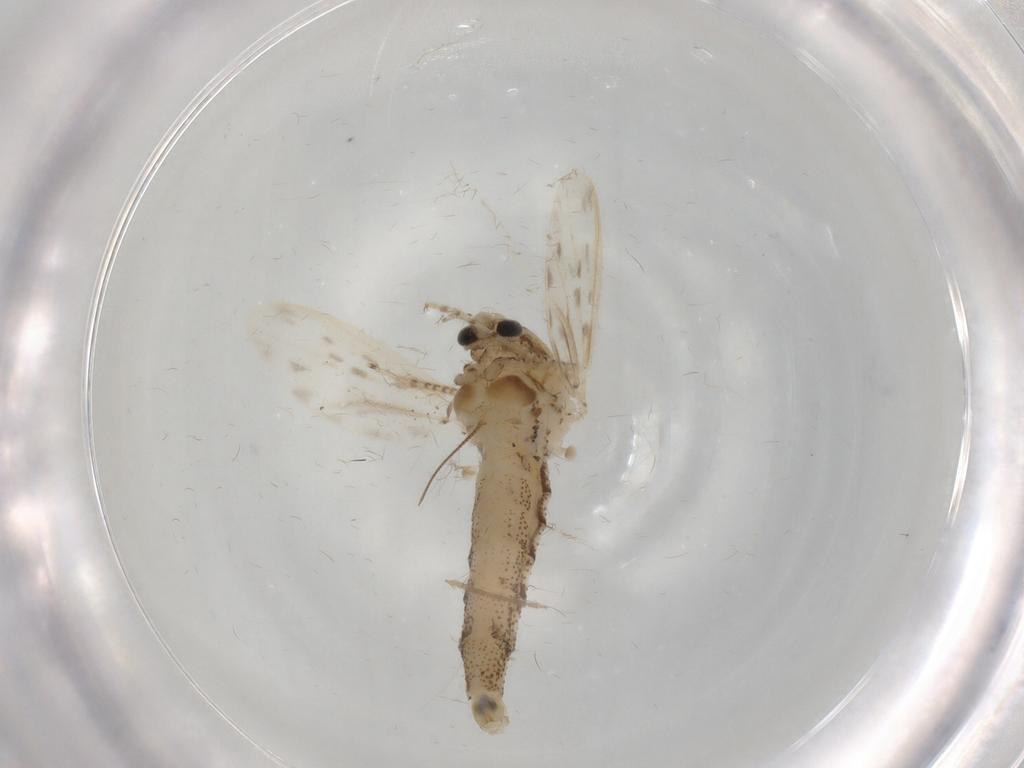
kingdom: Animalia
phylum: Arthropoda
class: Insecta
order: Diptera
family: Chaoboridae
